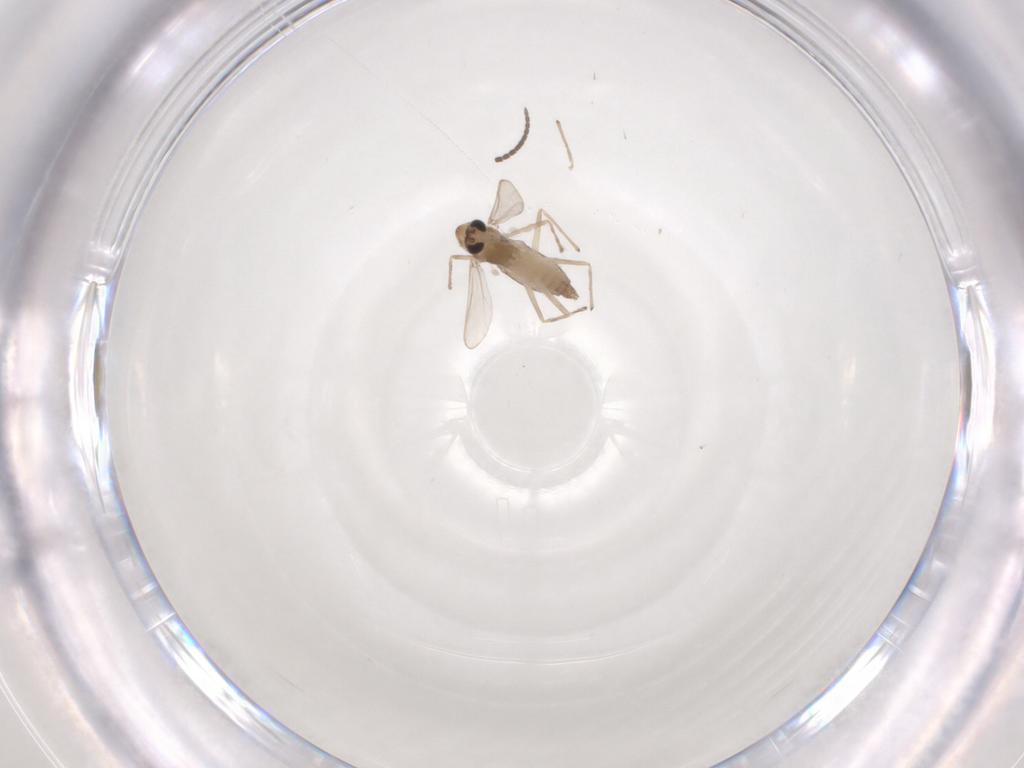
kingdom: Animalia
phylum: Arthropoda
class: Insecta
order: Diptera
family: Chironomidae
